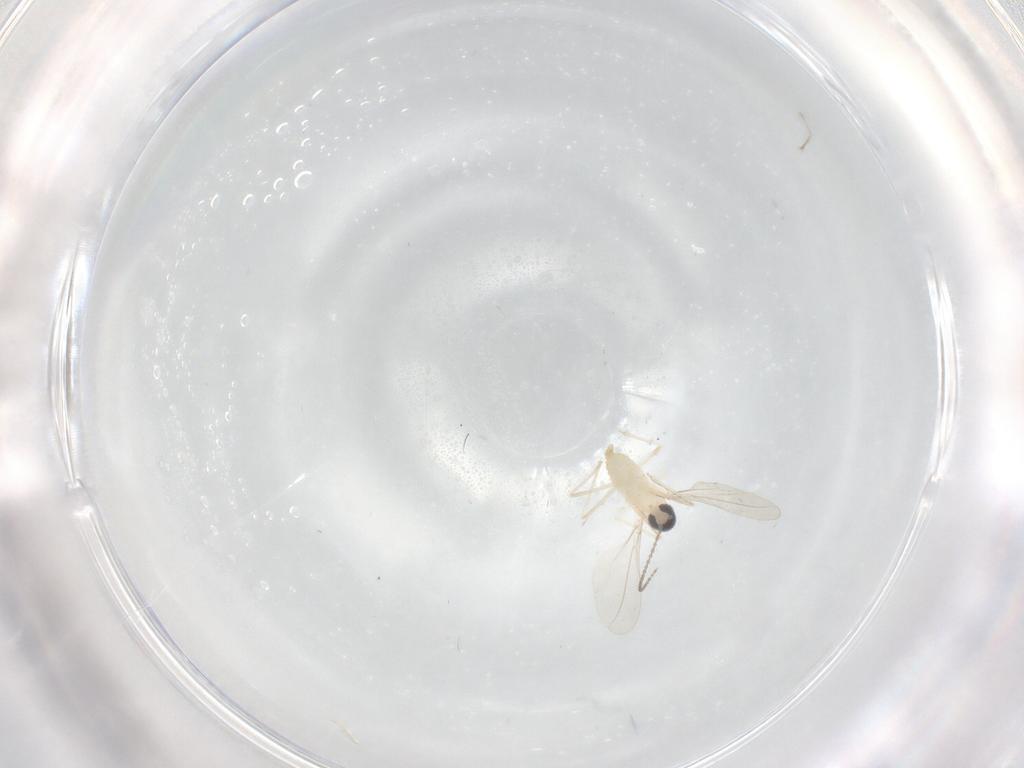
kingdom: Animalia
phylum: Arthropoda
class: Insecta
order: Diptera
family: Cecidomyiidae
